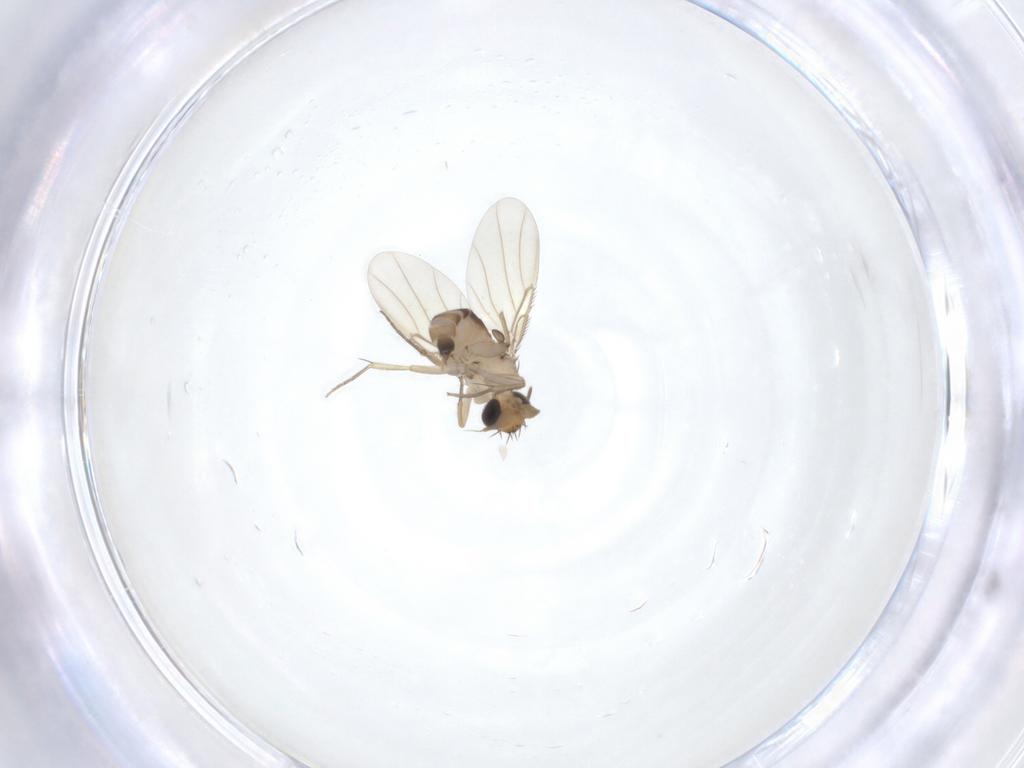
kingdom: Animalia
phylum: Arthropoda
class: Insecta
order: Diptera
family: Phoridae
